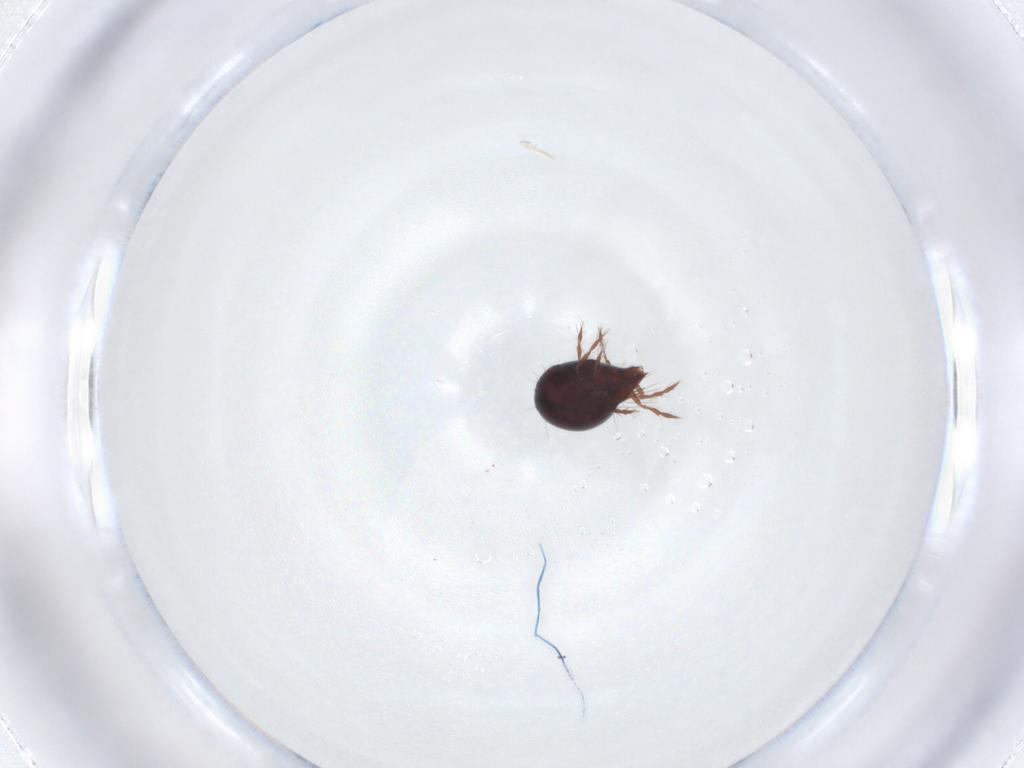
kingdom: Animalia
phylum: Arthropoda
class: Arachnida
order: Sarcoptiformes
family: Ceratoppiidae
